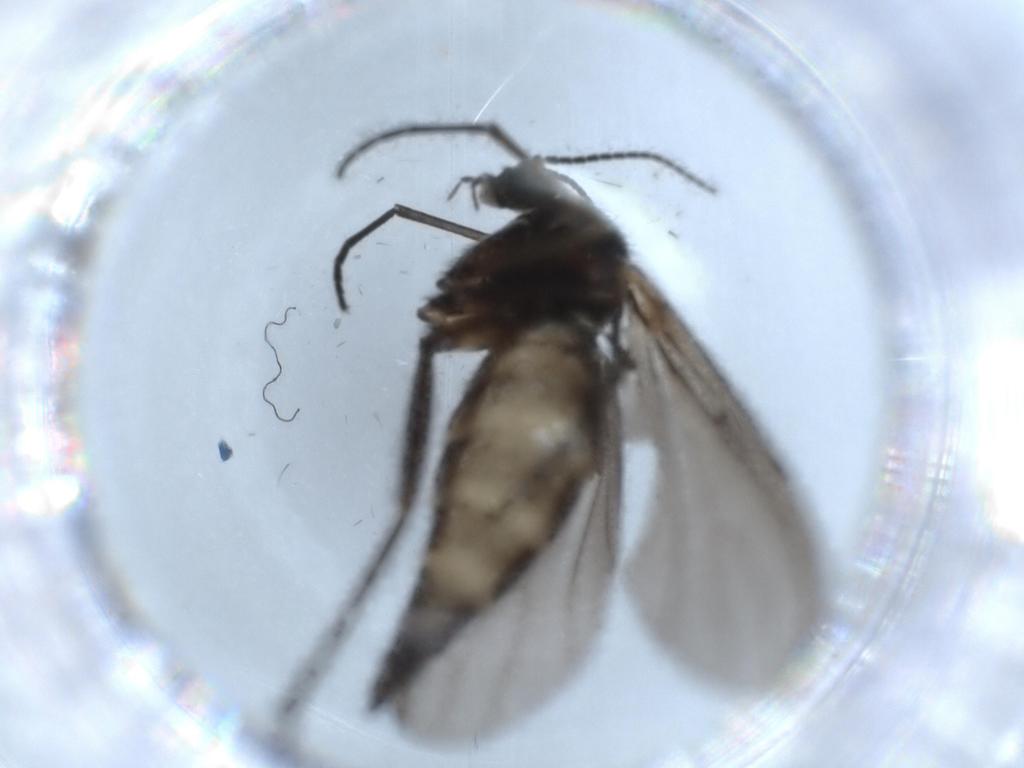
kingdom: Animalia
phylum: Arthropoda
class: Insecta
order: Diptera
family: Sciaridae
